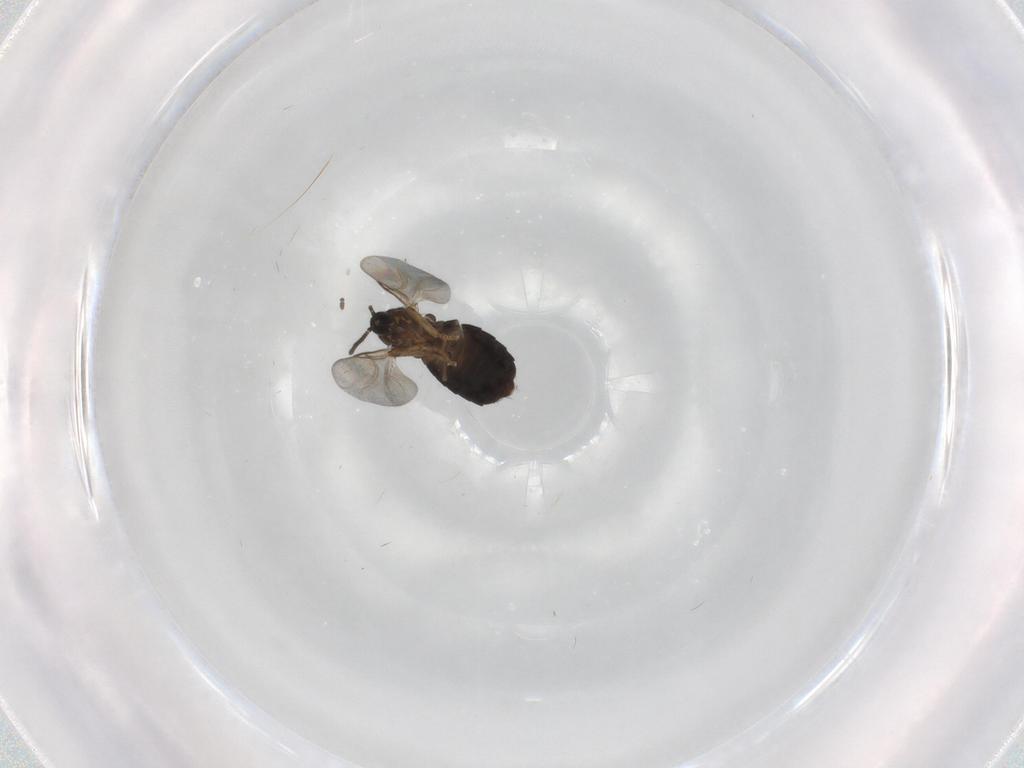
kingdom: Animalia
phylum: Arthropoda
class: Insecta
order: Diptera
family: Scatopsidae
